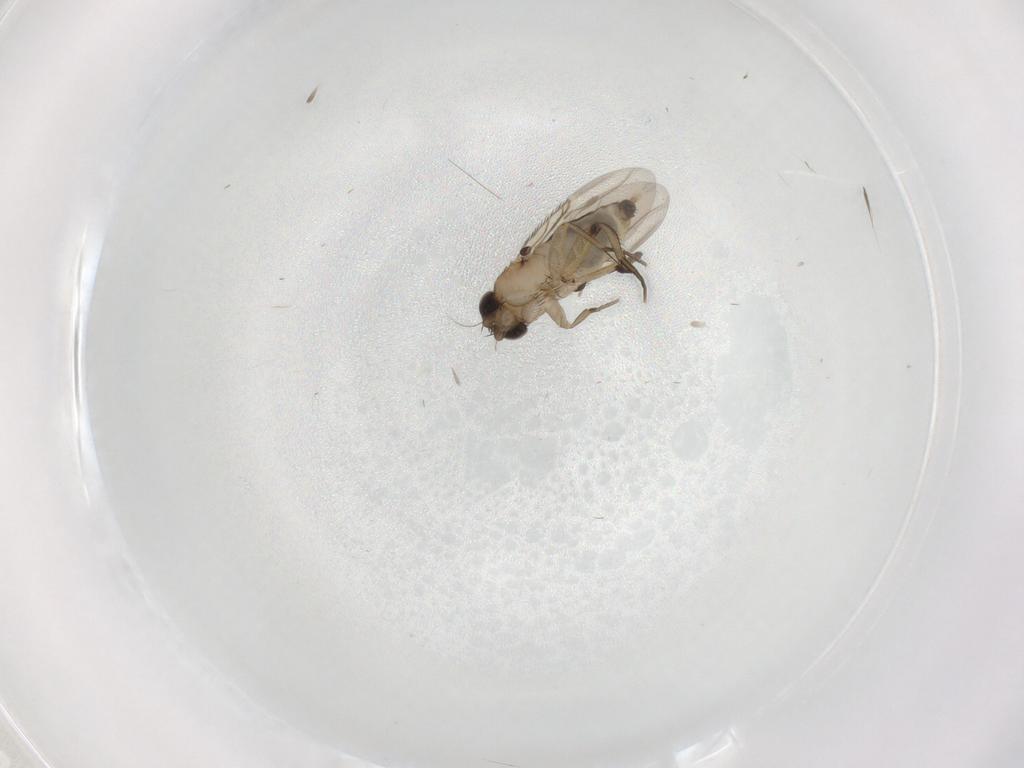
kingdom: Animalia
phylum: Arthropoda
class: Insecta
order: Diptera
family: Phoridae
